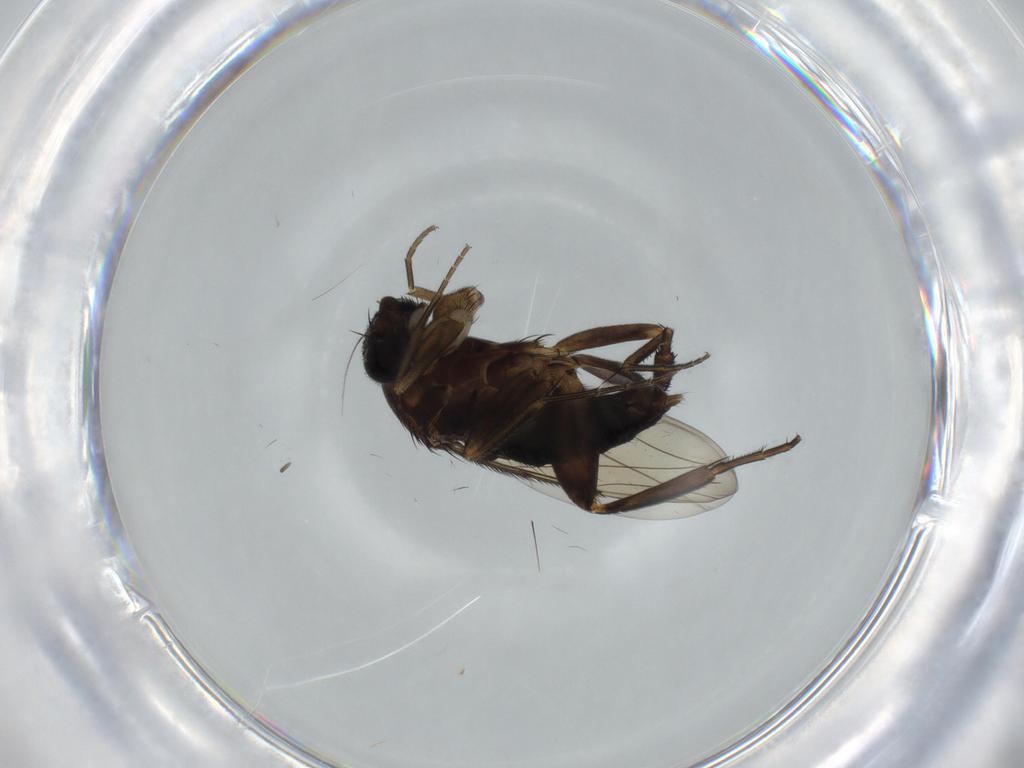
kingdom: Animalia
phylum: Arthropoda
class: Insecta
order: Diptera
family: Phoridae
